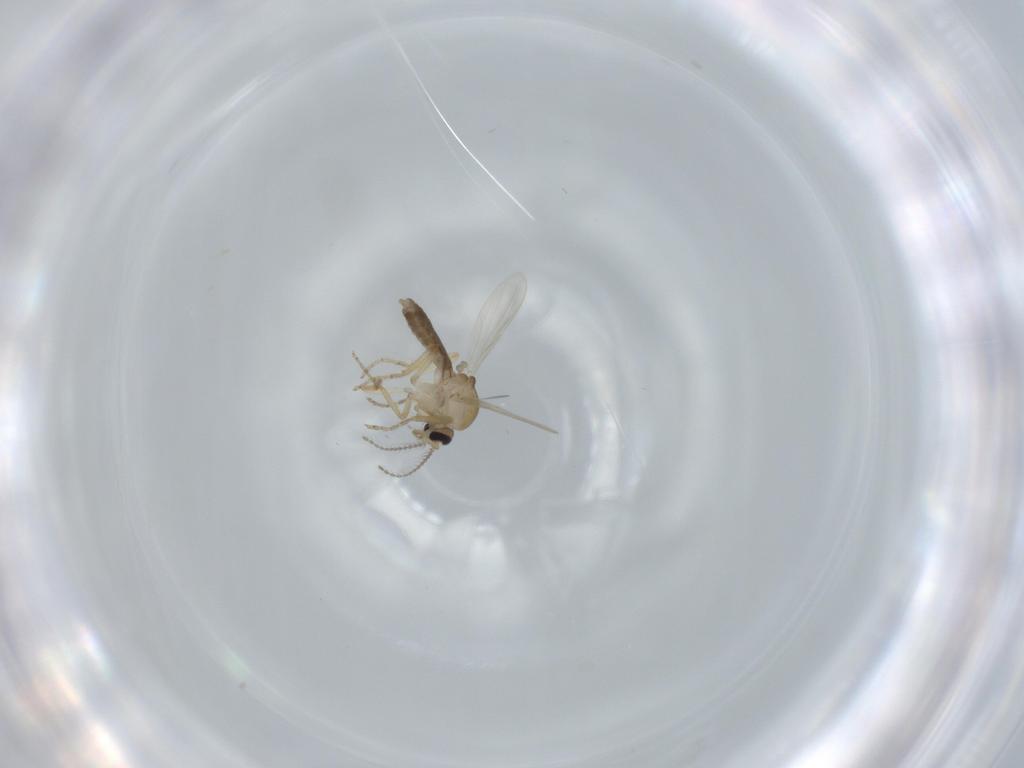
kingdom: Animalia
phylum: Arthropoda
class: Insecta
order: Diptera
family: Ceratopogonidae
